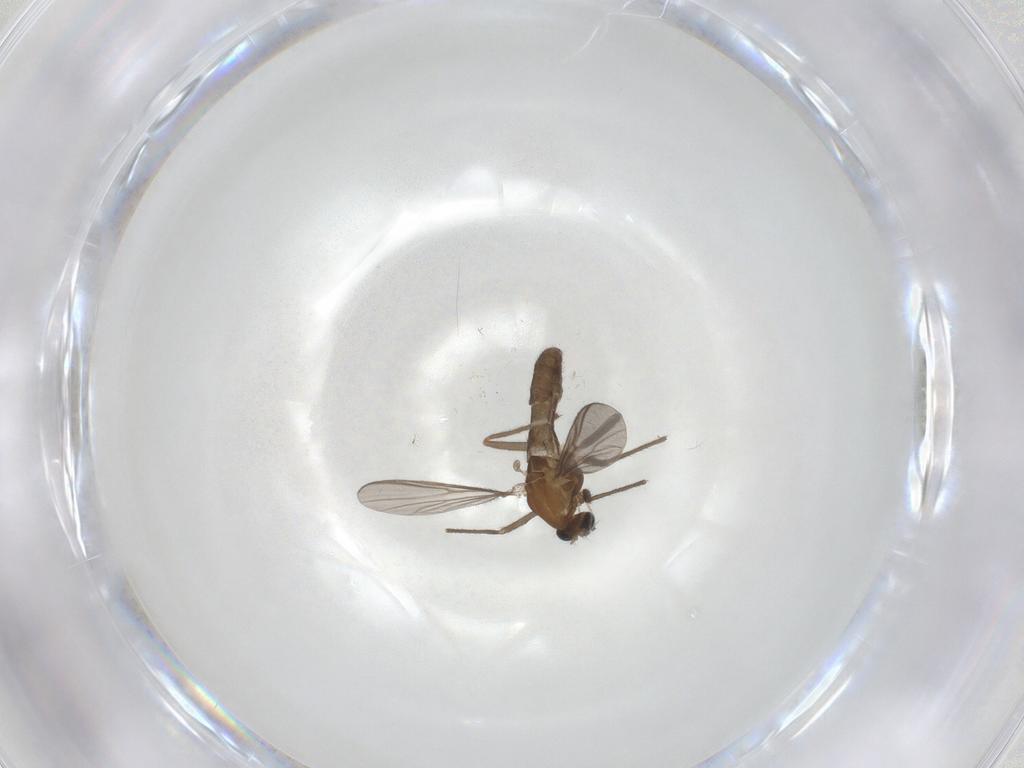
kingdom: Animalia
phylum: Arthropoda
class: Insecta
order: Diptera
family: Chironomidae
